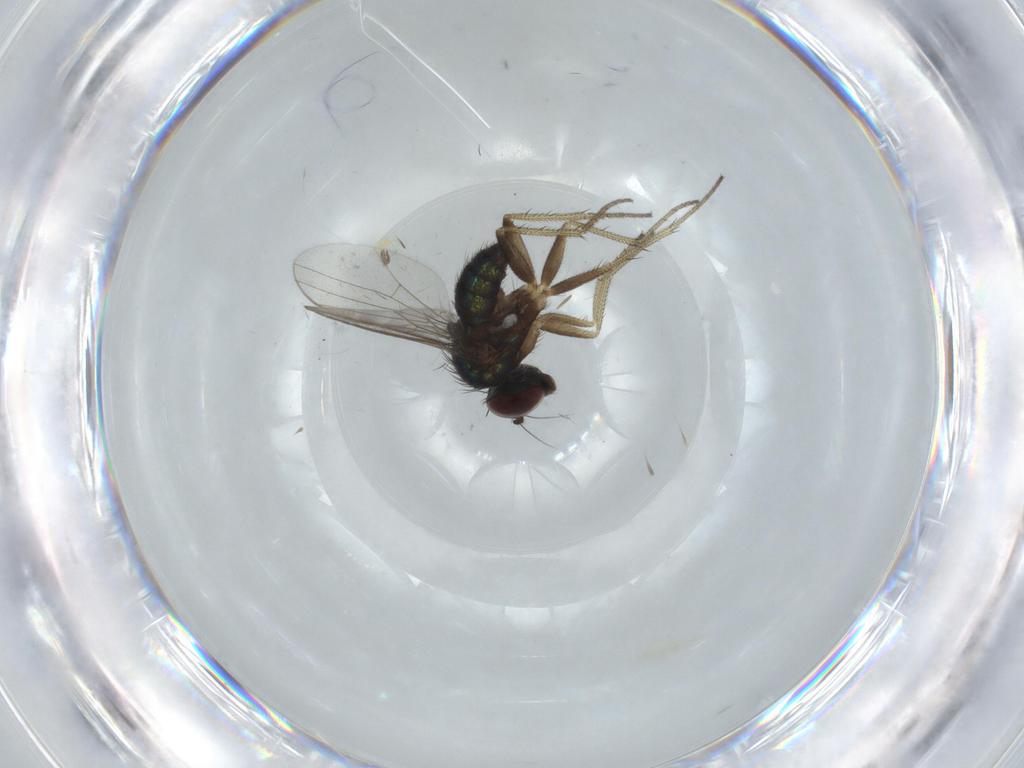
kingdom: Animalia
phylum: Arthropoda
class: Insecta
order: Diptera
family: Dolichopodidae
